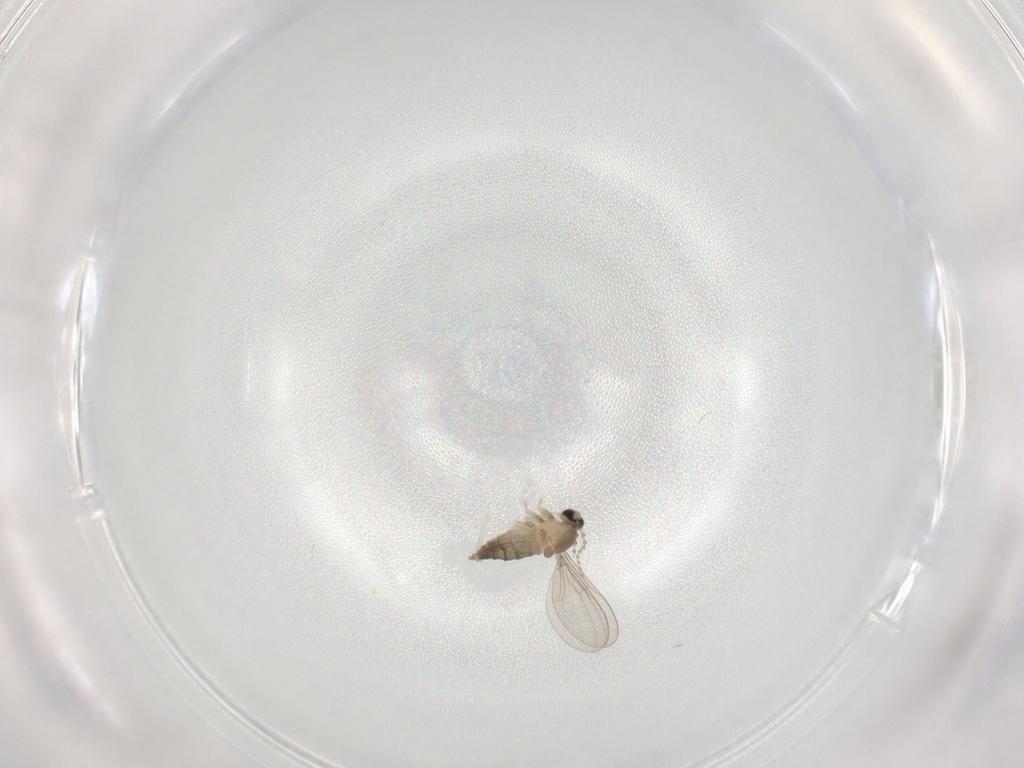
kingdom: Animalia
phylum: Arthropoda
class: Insecta
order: Diptera
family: Cecidomyiidae
